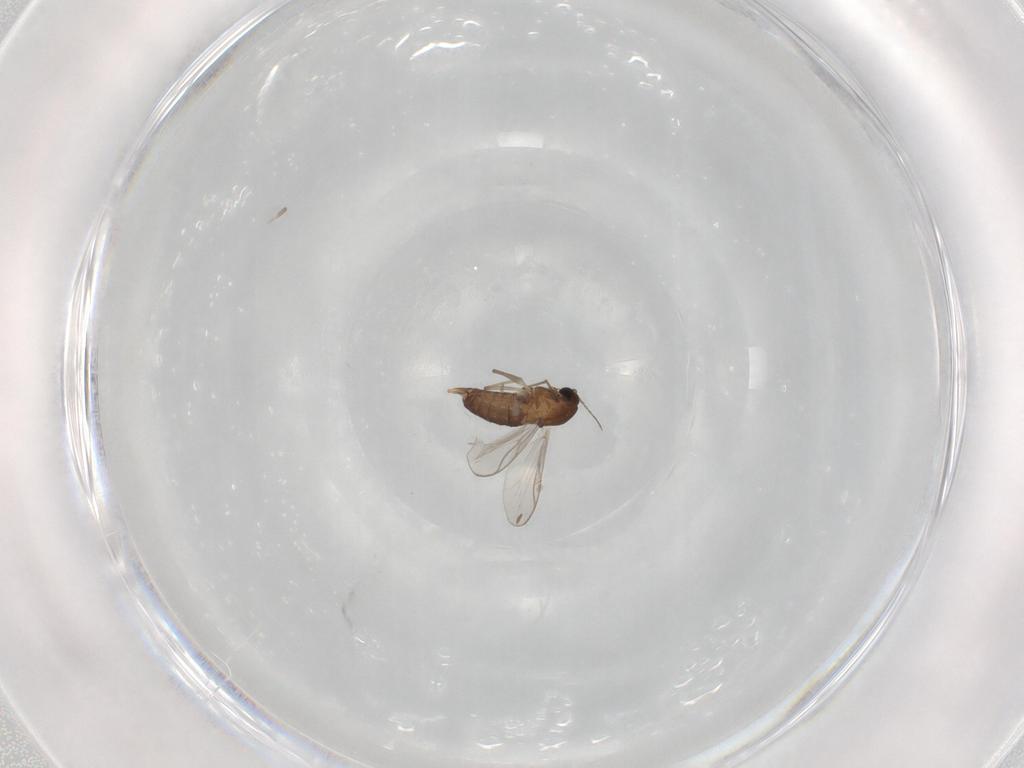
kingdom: Animalia
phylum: Arthropoda
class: Insecta
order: Diptera
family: Chironomidae
